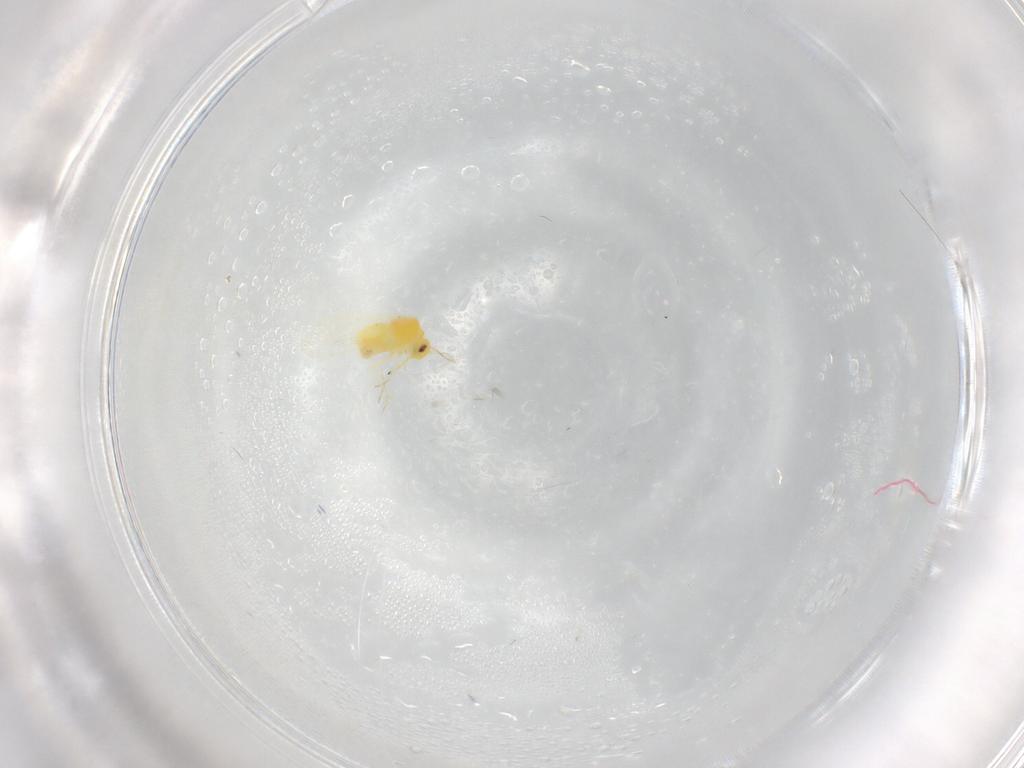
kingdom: Animalia
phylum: Arthropoda
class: Insecta
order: Hemiptera
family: Aleyrodidae
